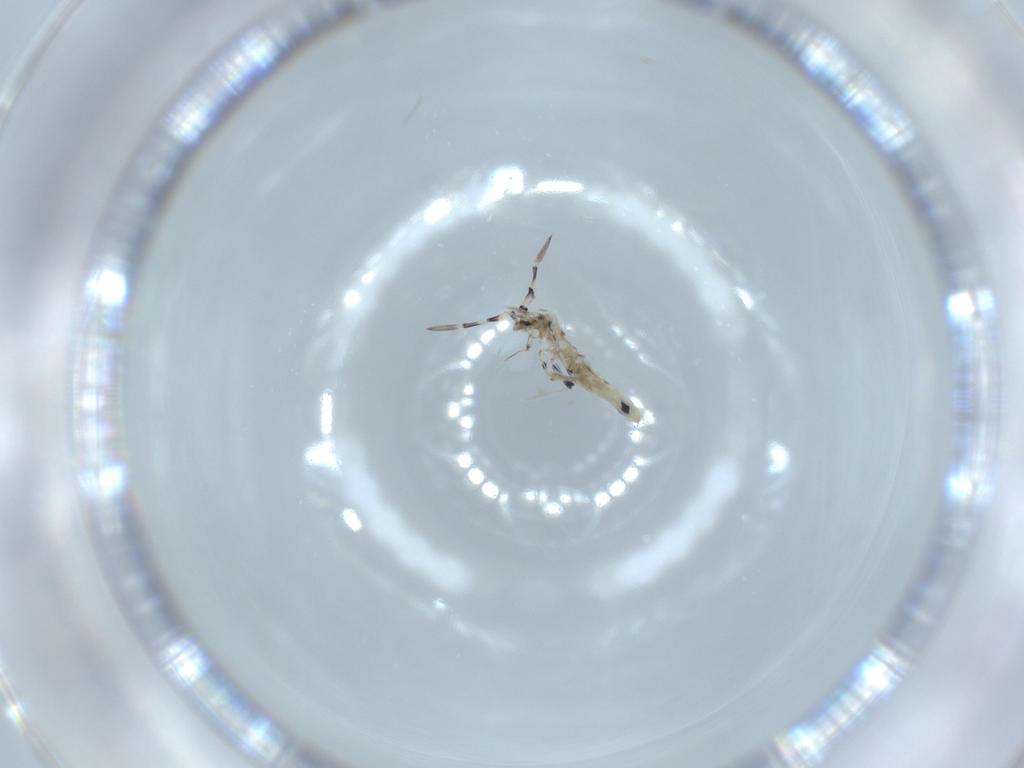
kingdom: Animalia
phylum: Arthropoda
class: Collembola
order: Entomobryomorpha
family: Entomobryidae
